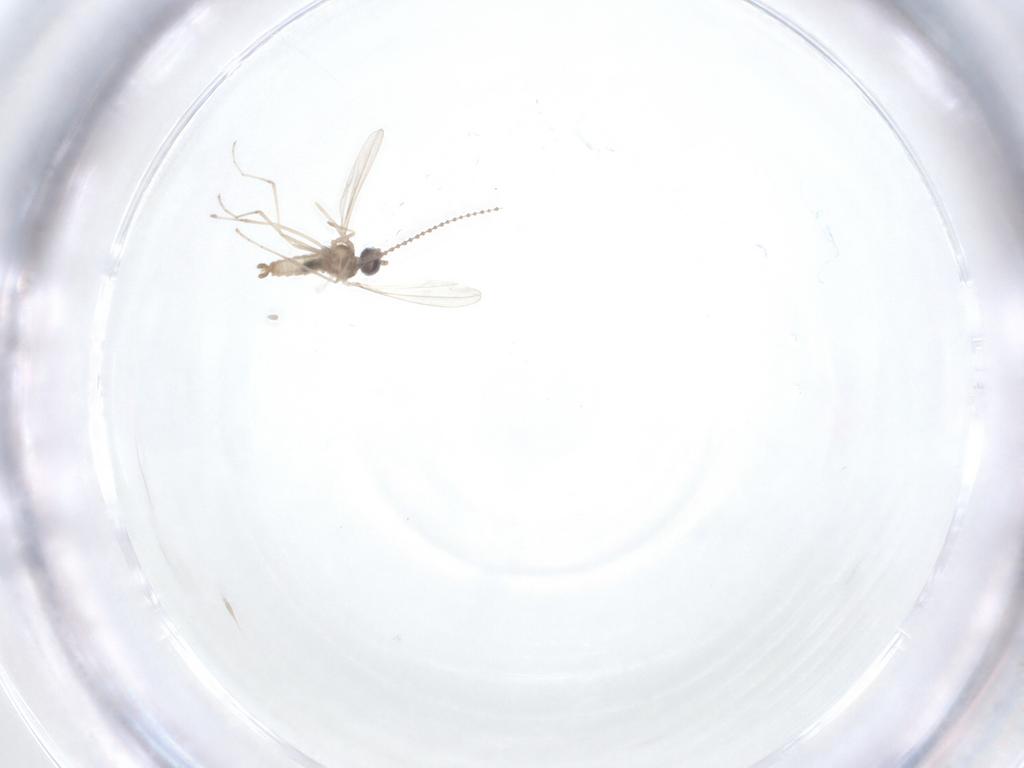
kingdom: Animalia
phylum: Arthropoda
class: Insecta
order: Diptera
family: Cecidomyiidae
